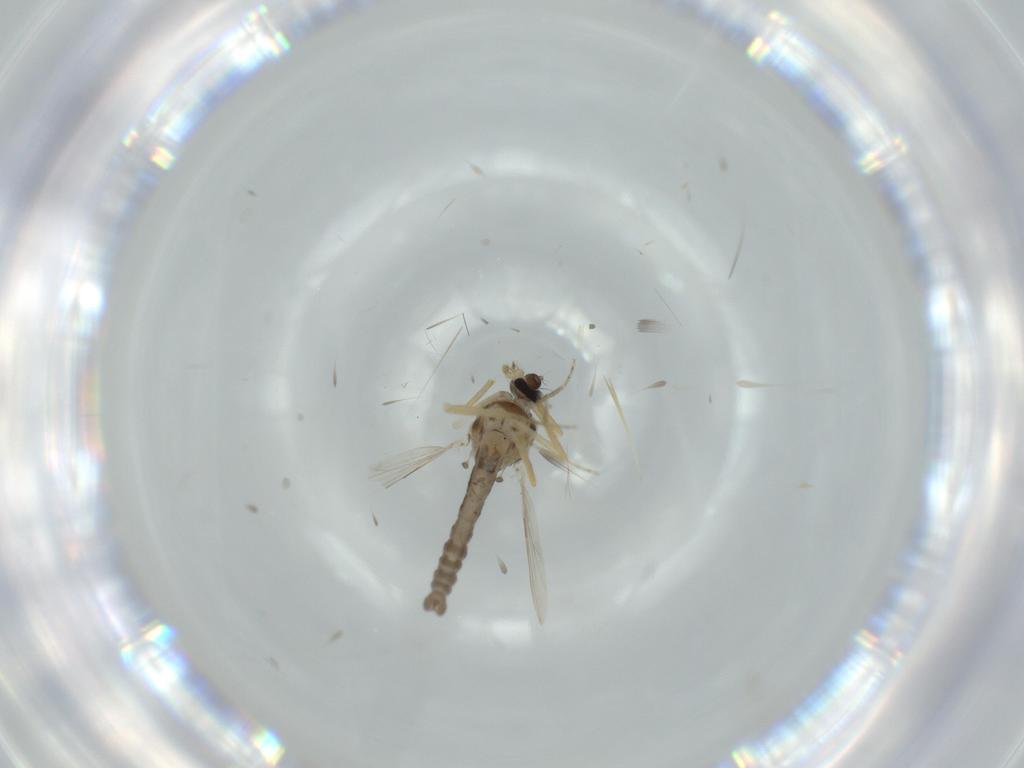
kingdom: Animalia
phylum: Arthropoda
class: Insecta
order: Diptera
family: Ceratopogonidae
